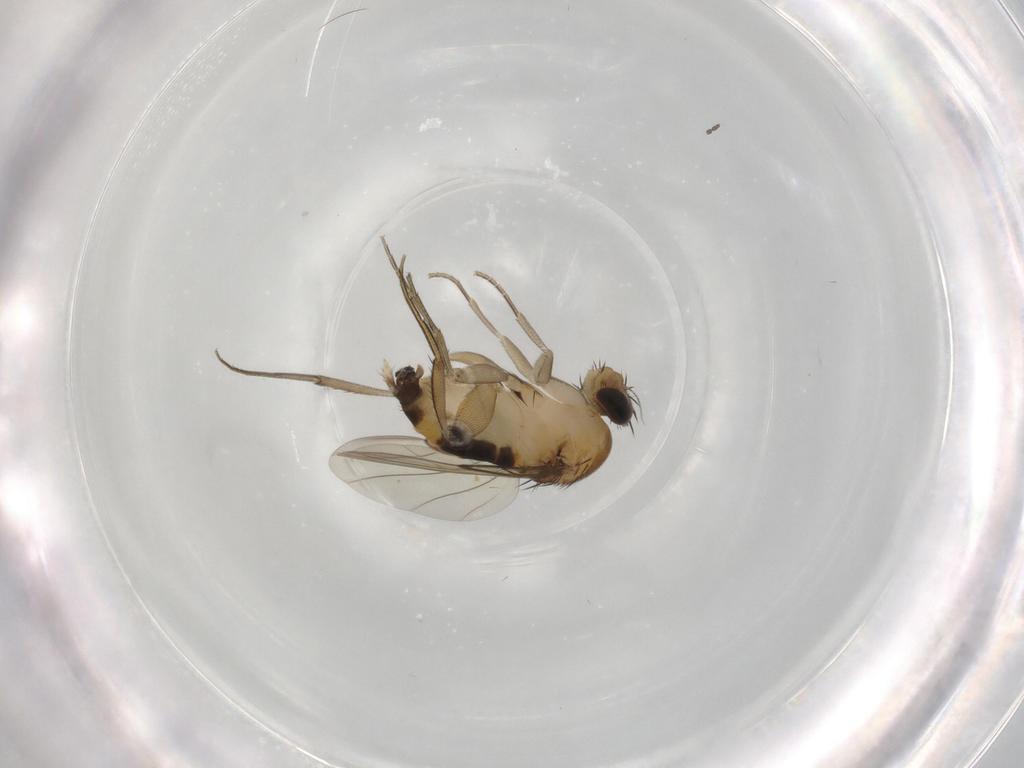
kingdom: Animalia
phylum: Arthropoda
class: Insecta
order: Diptera
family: Phoridae
